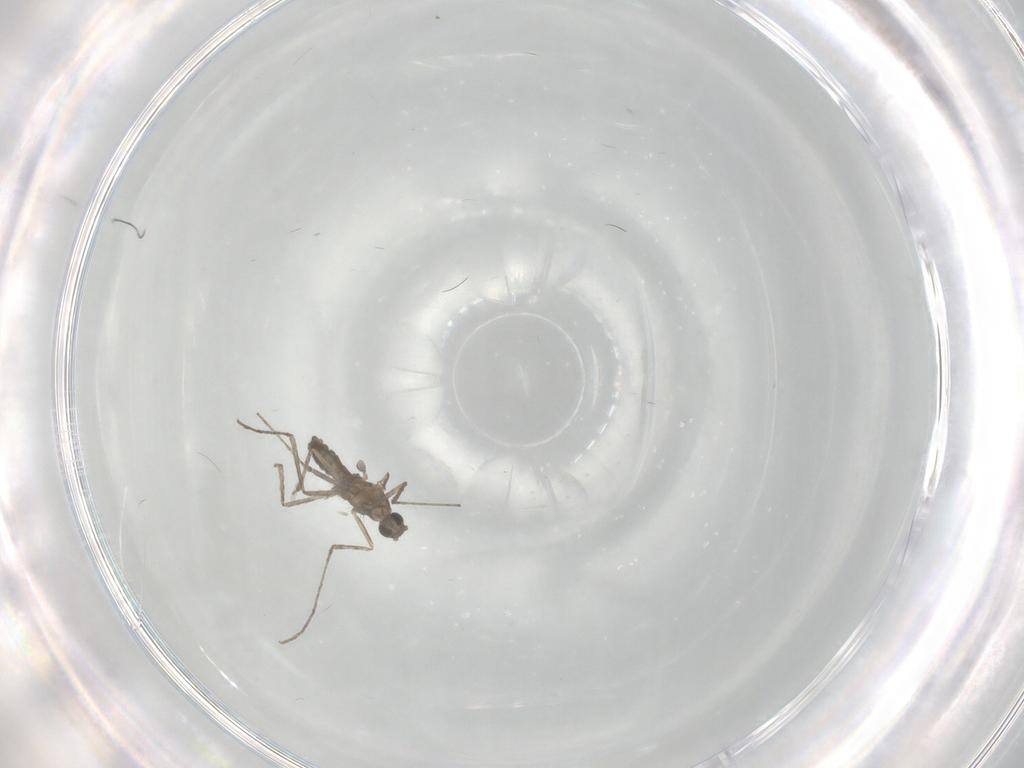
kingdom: Animalia
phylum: Arthropoda
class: Insecta
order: Diptera
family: Cecidomyiidae
